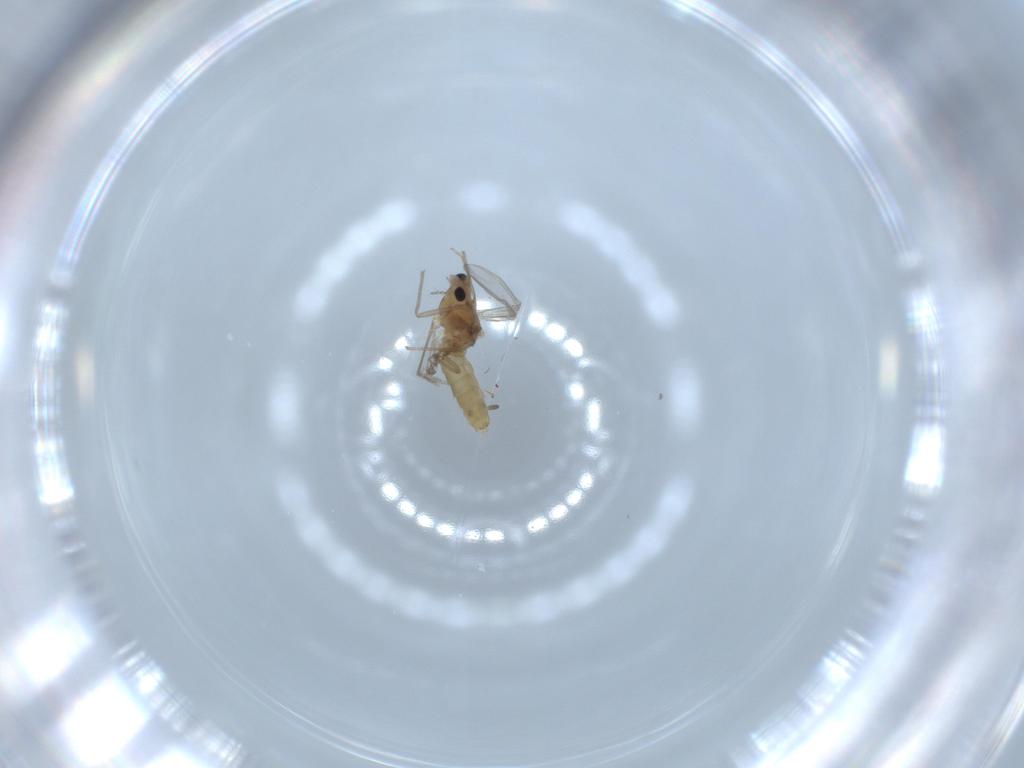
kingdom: Animalia
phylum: Arthropoda
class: Insecta
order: Diptera
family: Chironomidae
